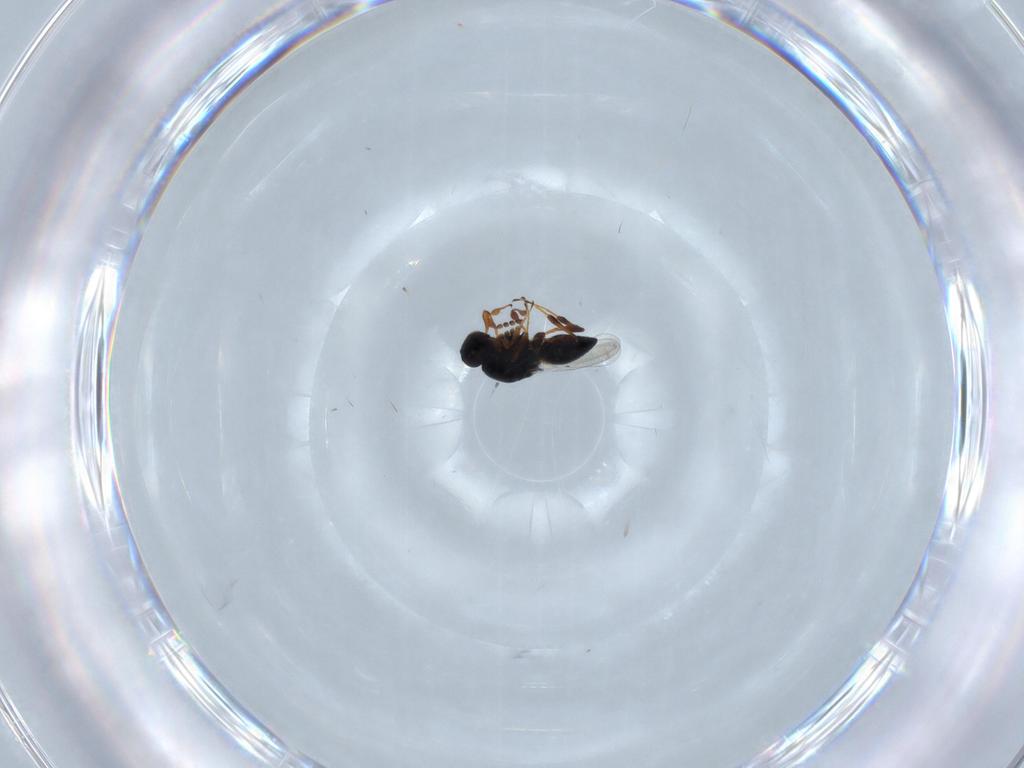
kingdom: Animalia
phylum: Arthropoda
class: Insecta
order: Hymenoptera
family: Platygastridae
